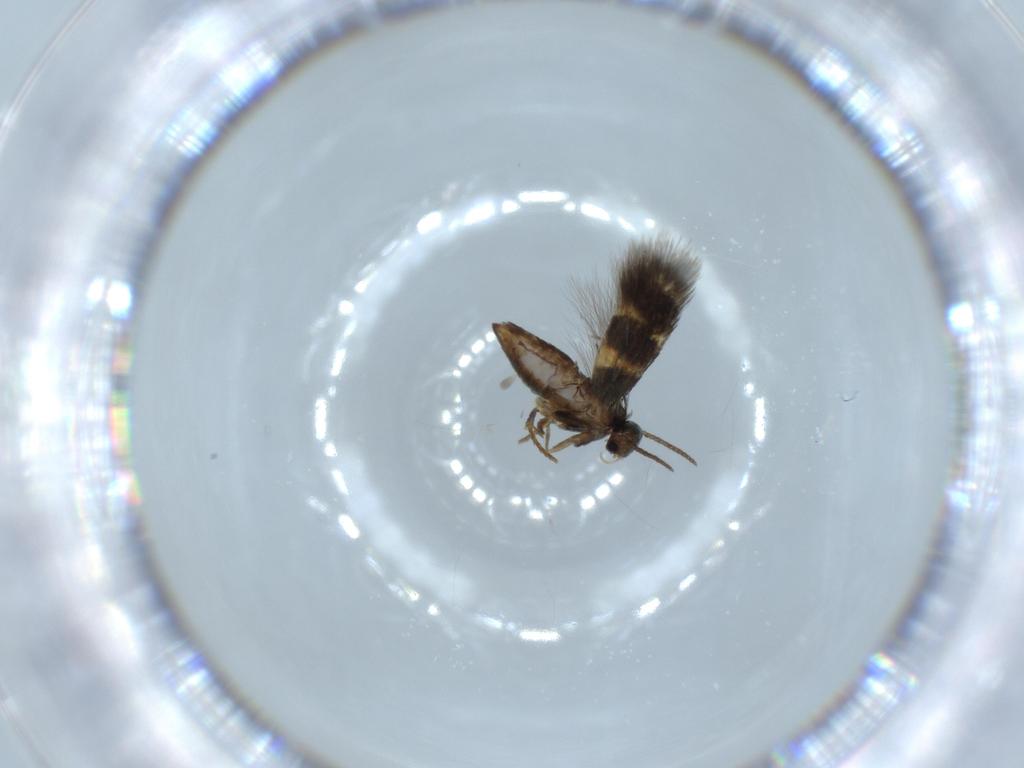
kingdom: Animalia
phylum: Arthropoda
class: Insecta
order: Lepidoptera
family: Heliozelidae
